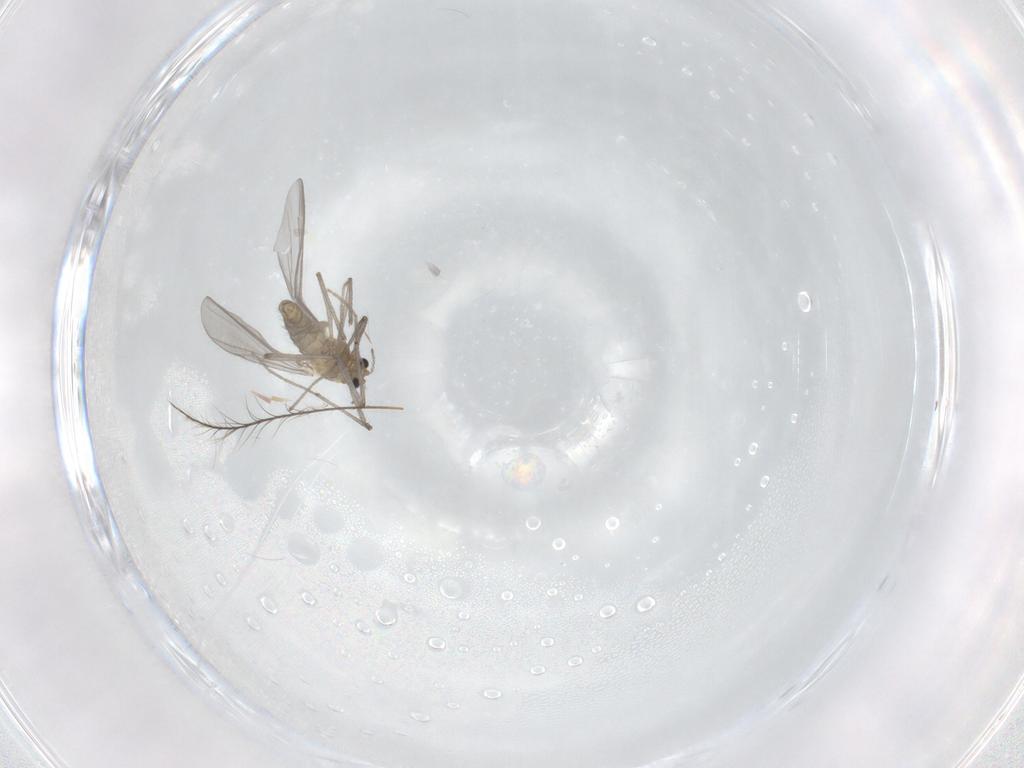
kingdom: Animalia
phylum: Arthropoda
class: Insecta
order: Diptera
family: Chironomidae
